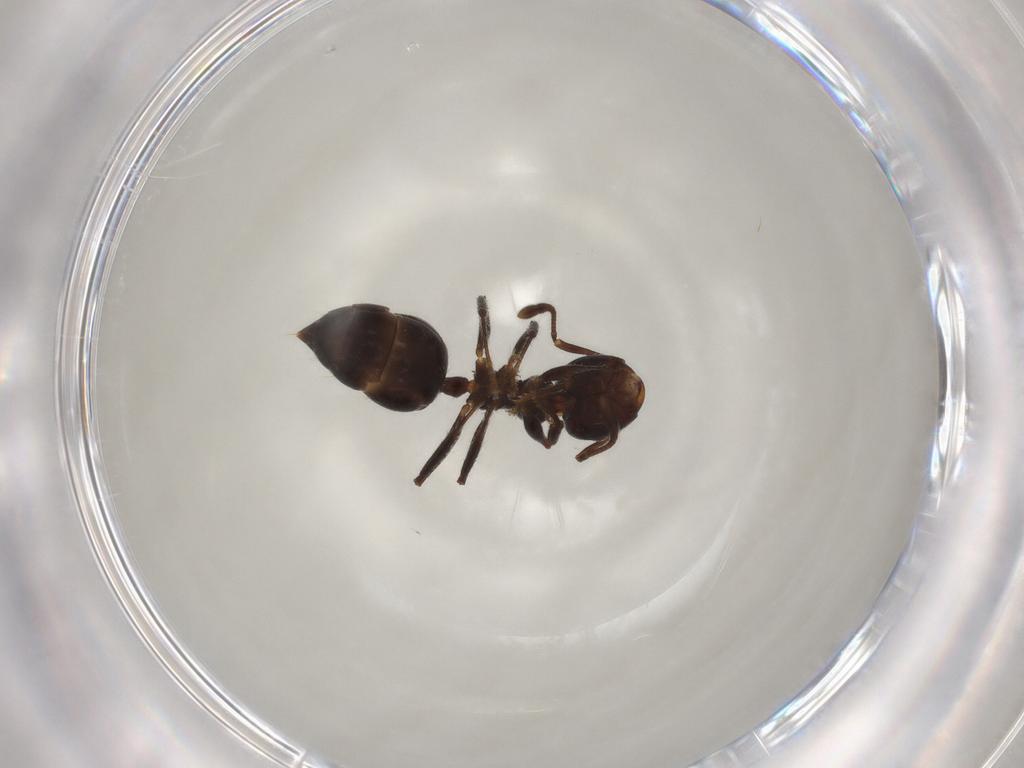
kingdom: Animalia
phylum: Arthropoda
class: Insecta
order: Hymenoptera
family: Formicidae
